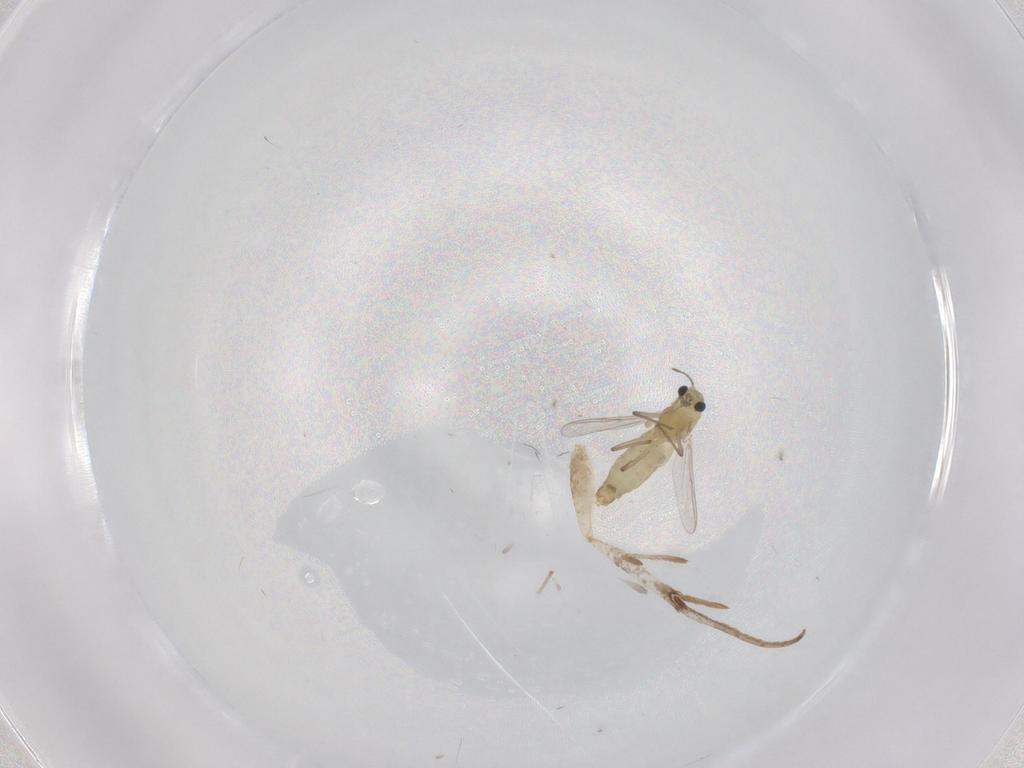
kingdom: Animalia
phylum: Arthropoda
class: Insecta
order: Diptera
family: Chironomidae
